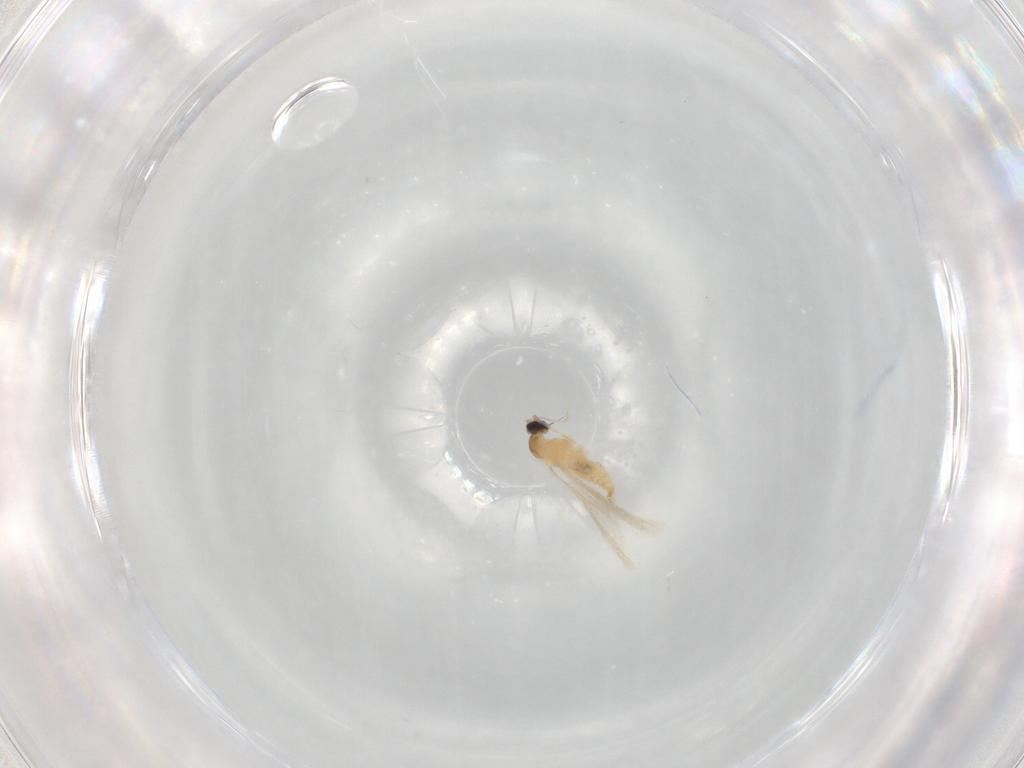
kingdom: Animalia
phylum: Arthropoda
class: Insecta
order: Diptera
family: Cecidomyiidae
